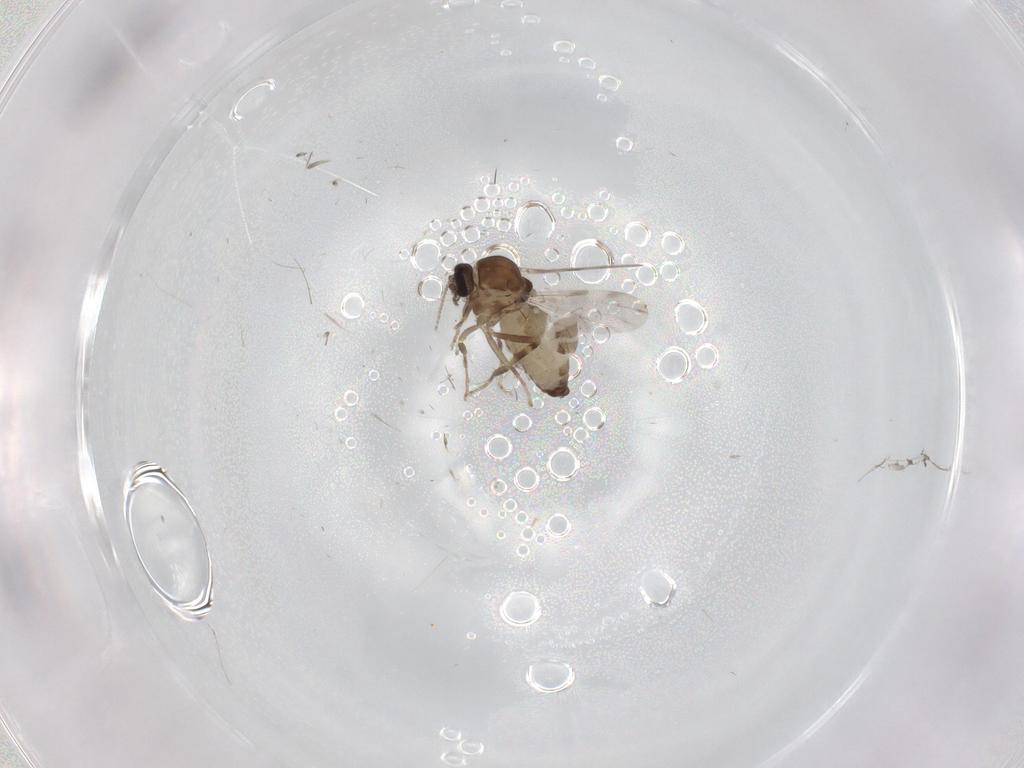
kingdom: Animalia
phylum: Arthropoda
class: Insecta
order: Diptera
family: Ceratopogonidae
